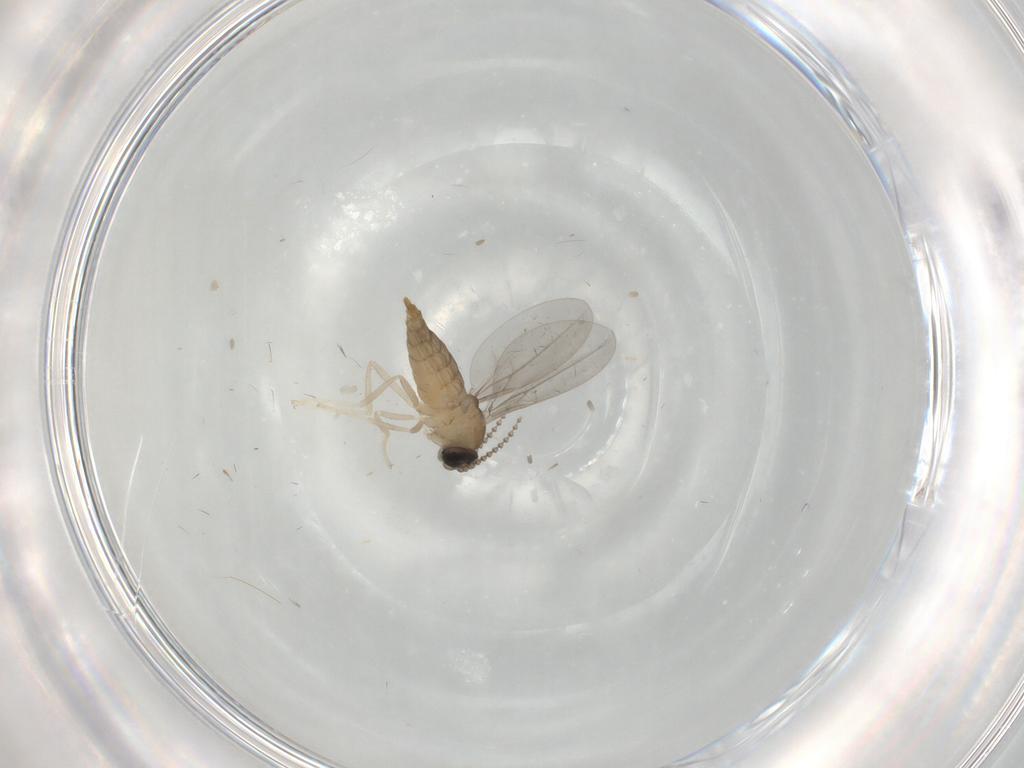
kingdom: Animalia
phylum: Arthropoda
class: Insecta
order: Diptera
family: Cecidomyiidae
